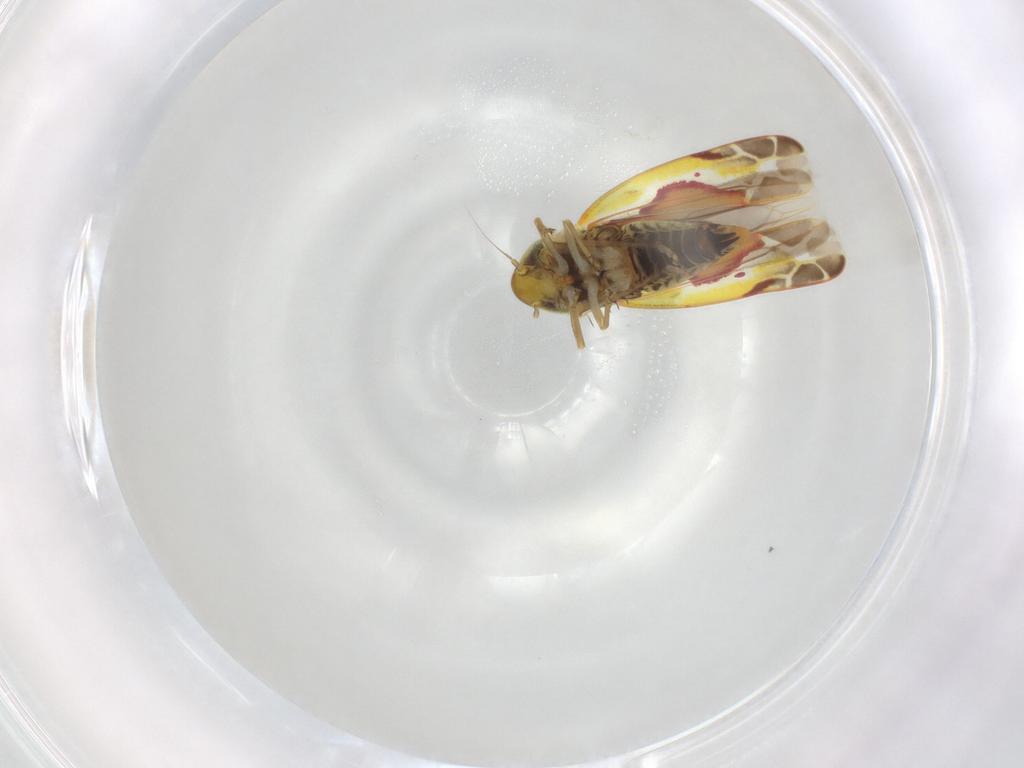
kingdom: Animalia
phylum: Arthropoda
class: Insecta
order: Hemiptera
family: Cicadellidae
